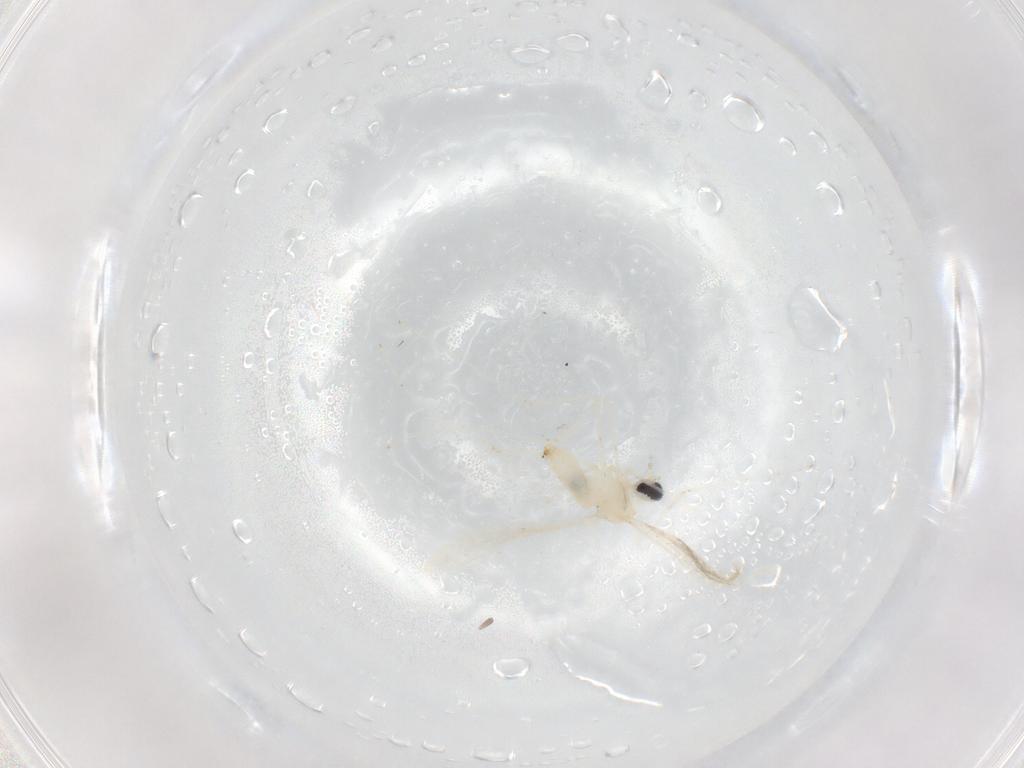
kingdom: Animalia
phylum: Arthropoda
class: Insecta
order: Diptera
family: Cecidomyiidae
